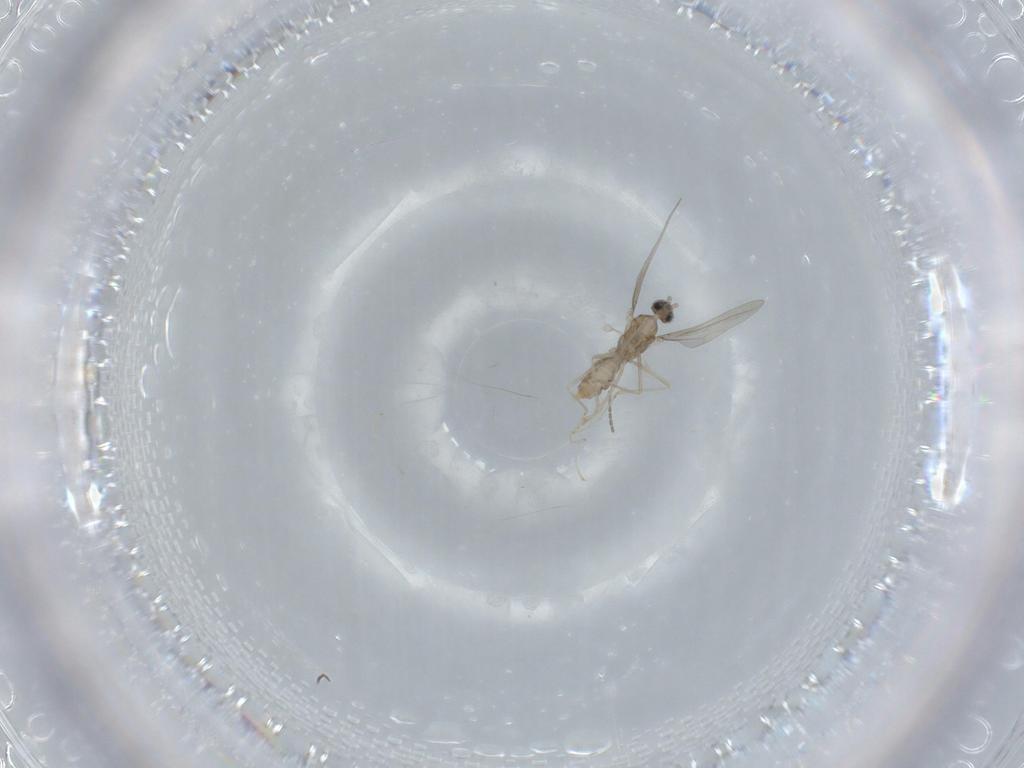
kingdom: Animalia
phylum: Arthropoda
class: Insecta
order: Diptera
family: Cecidomyiidae
